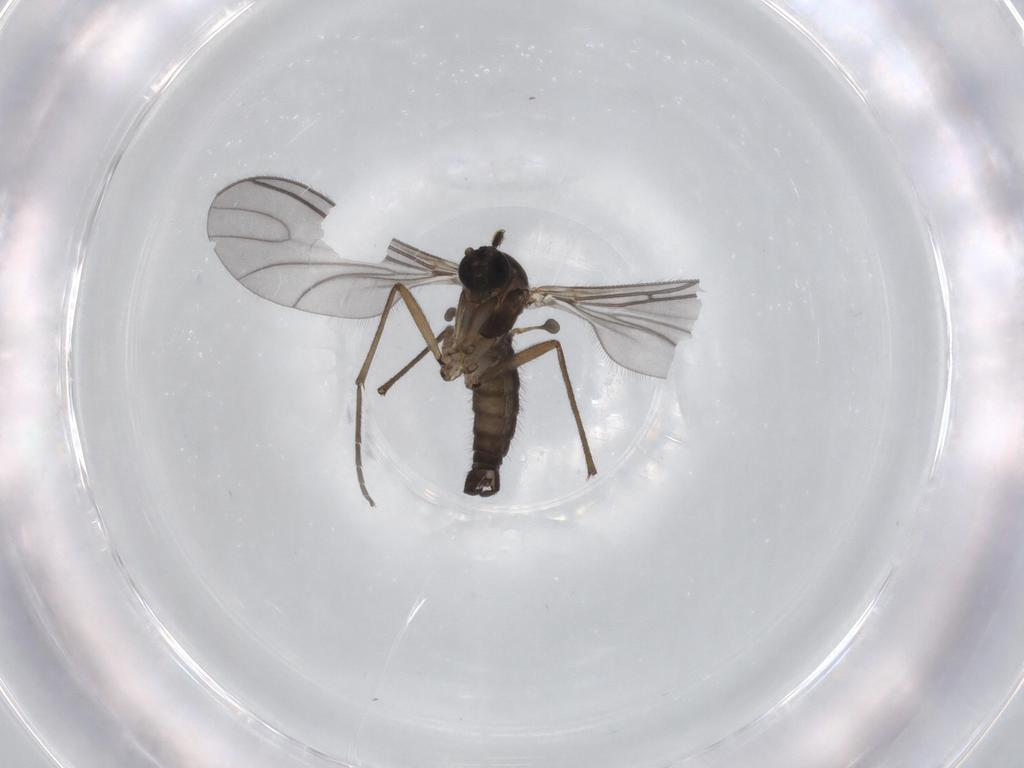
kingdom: Animalia
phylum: Arthropoda
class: Insecta
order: Diptera
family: Sciaridae
